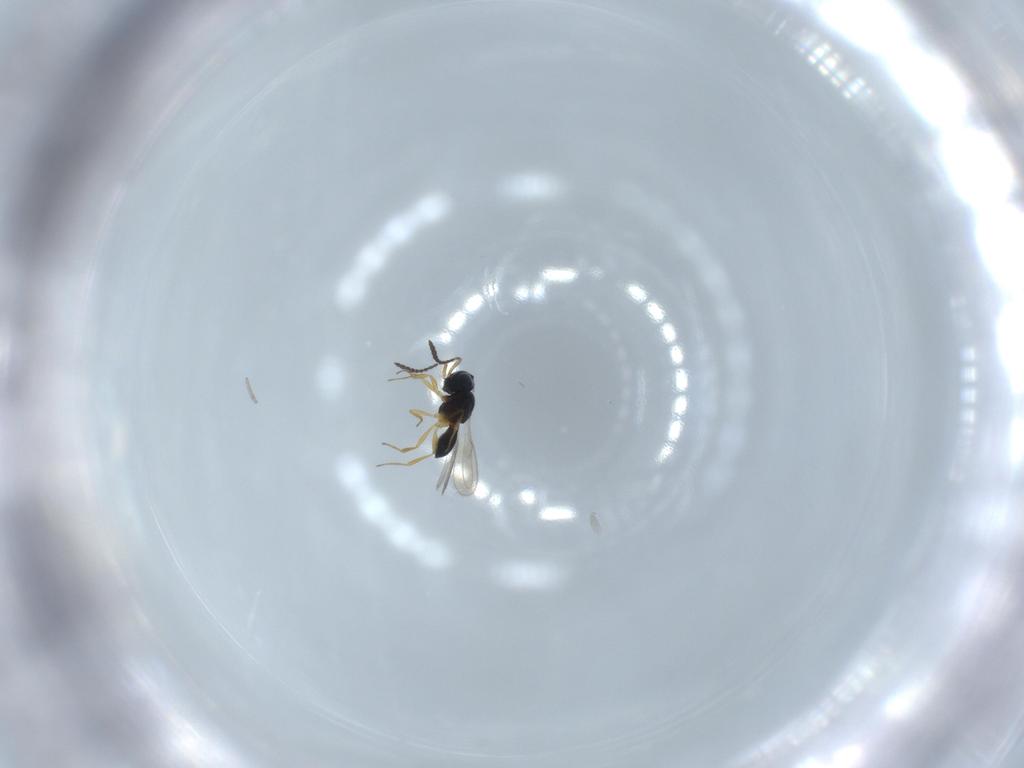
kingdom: Animalia
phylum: Arthropoda
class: Insecta
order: Hymenoptera
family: Scelionidae
